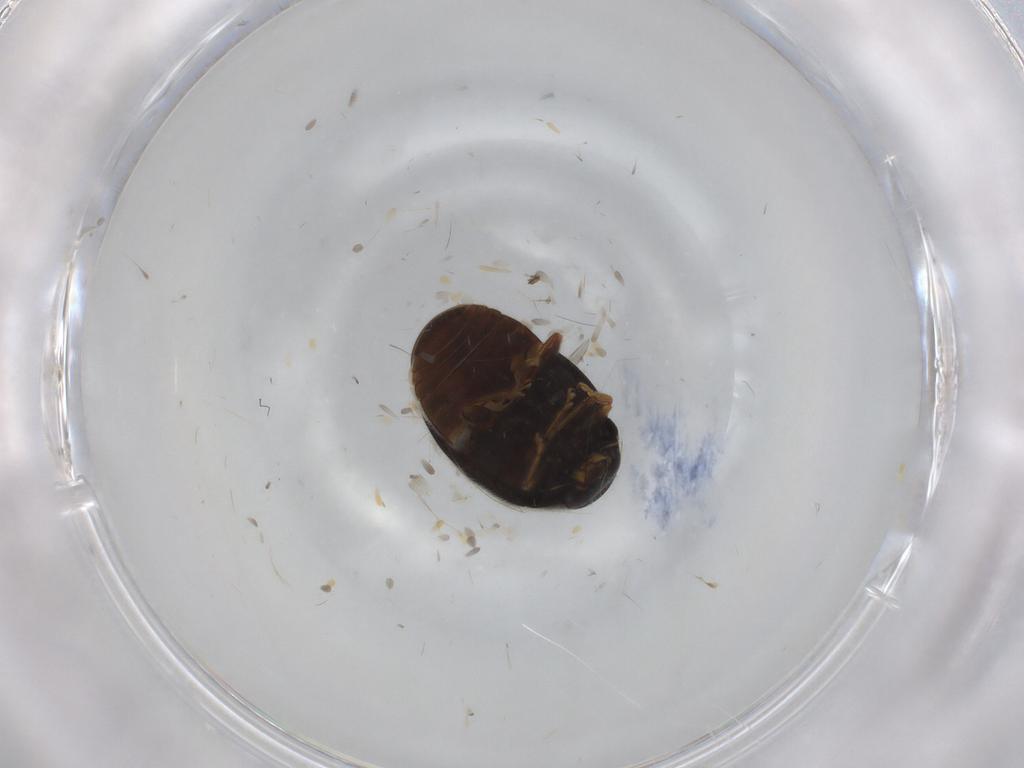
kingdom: Animalia
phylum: Arthropoda
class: Insecta
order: Coleoptera
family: Coccinellidae
